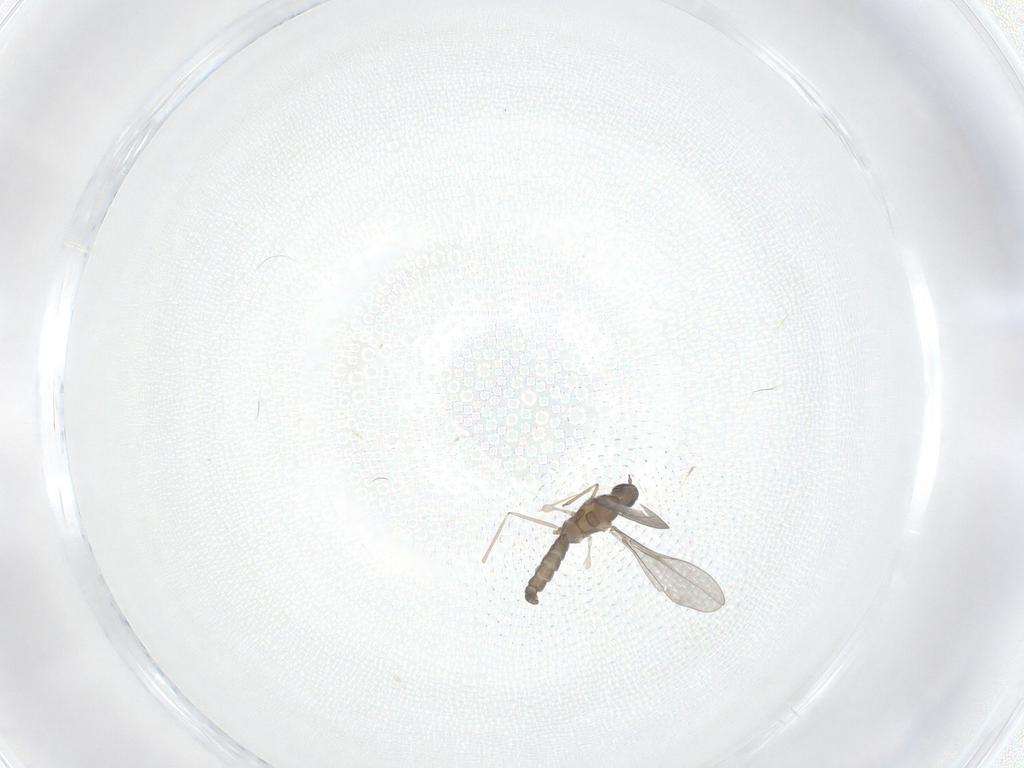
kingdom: Animalia
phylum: Arthropoda
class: Insecta
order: Diptera
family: Cecidomyiidae
